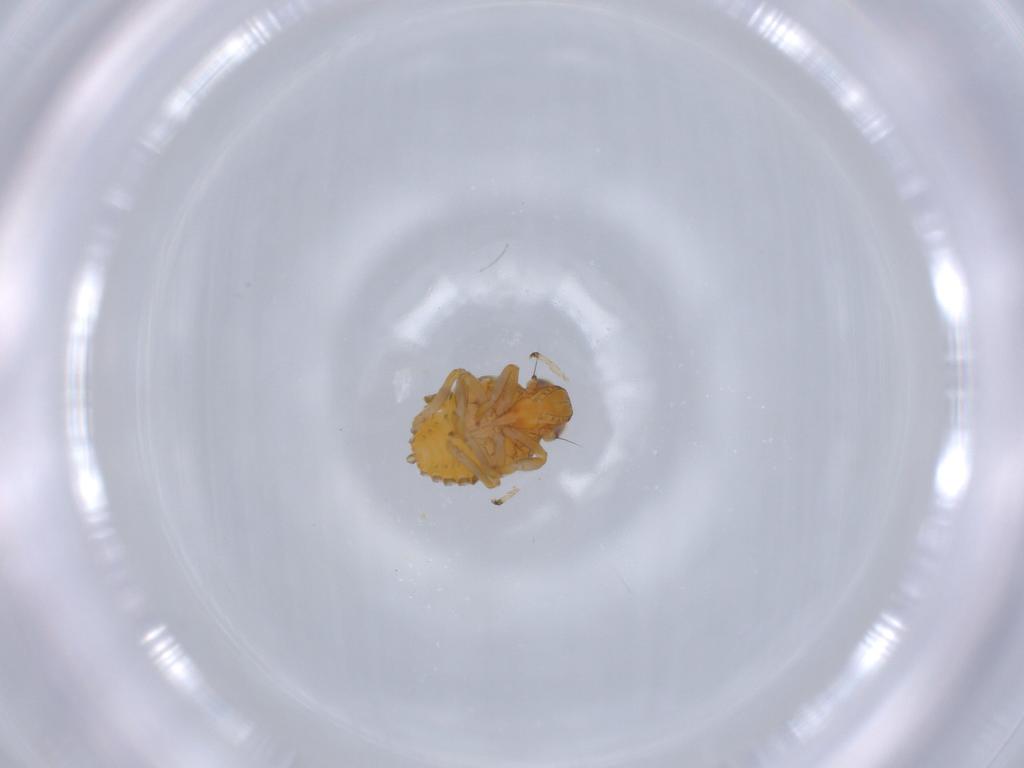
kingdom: Animalia
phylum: Arthropoda
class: Insecta
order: Hemiptera
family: Issidae
